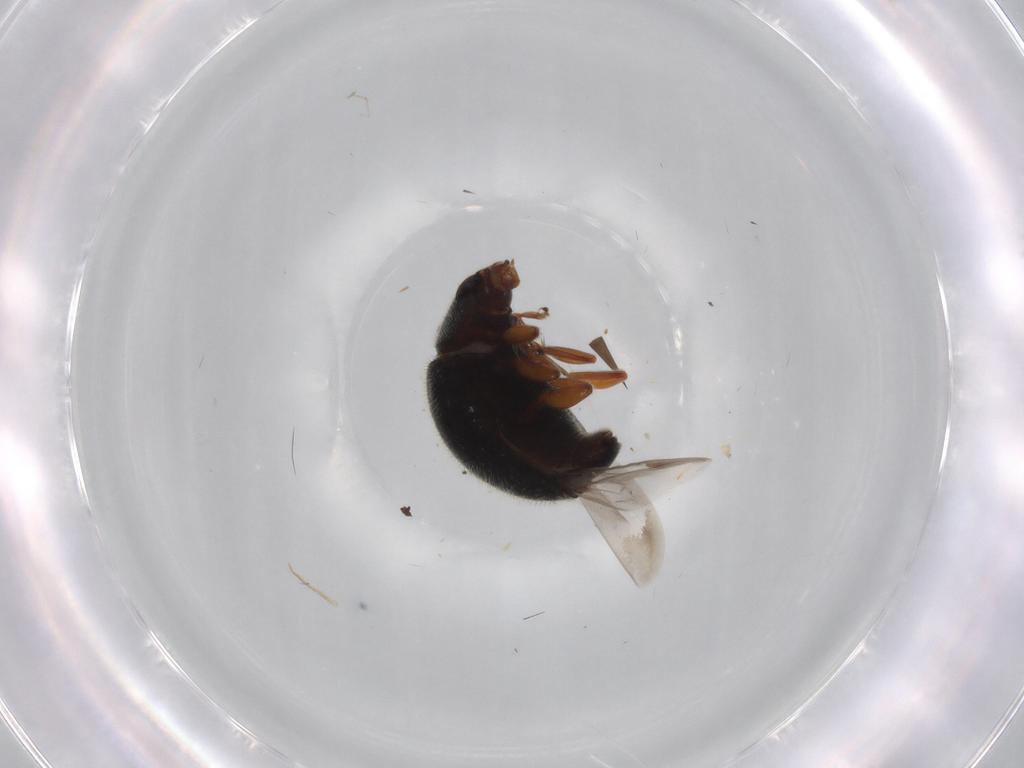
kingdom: Animalia
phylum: Arthropoda
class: Insecta
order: Coleoptera
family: Coccinellidae
